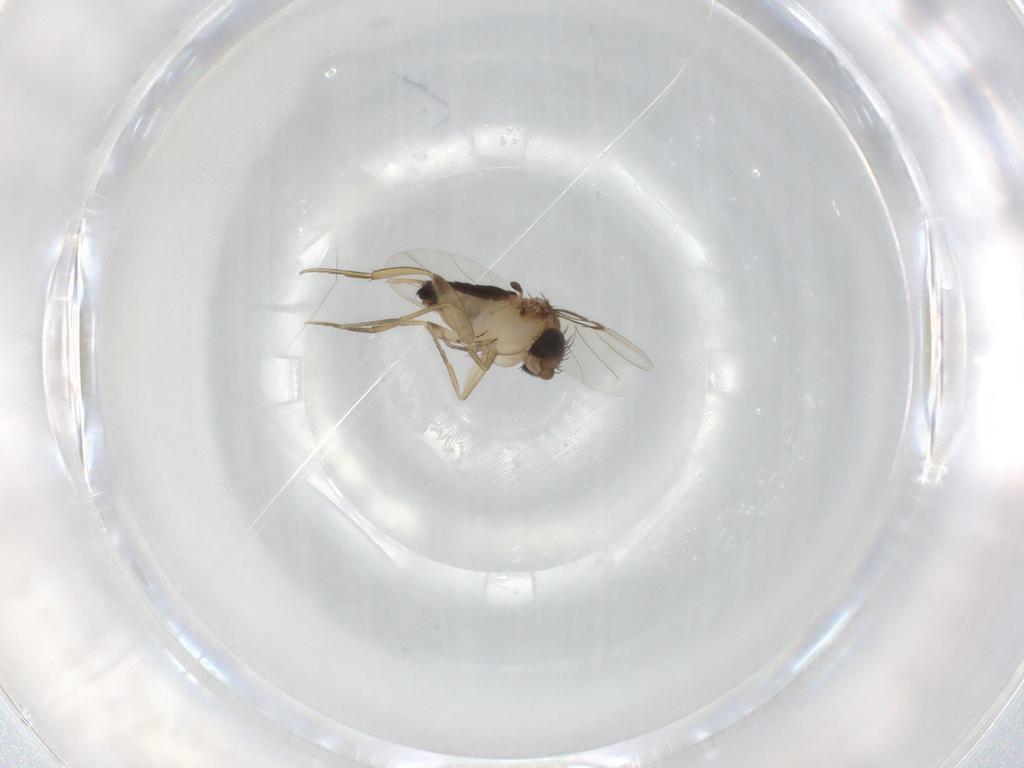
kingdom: Animalia
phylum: Arthropoda
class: Insecta
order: Diptera
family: Phoridae
